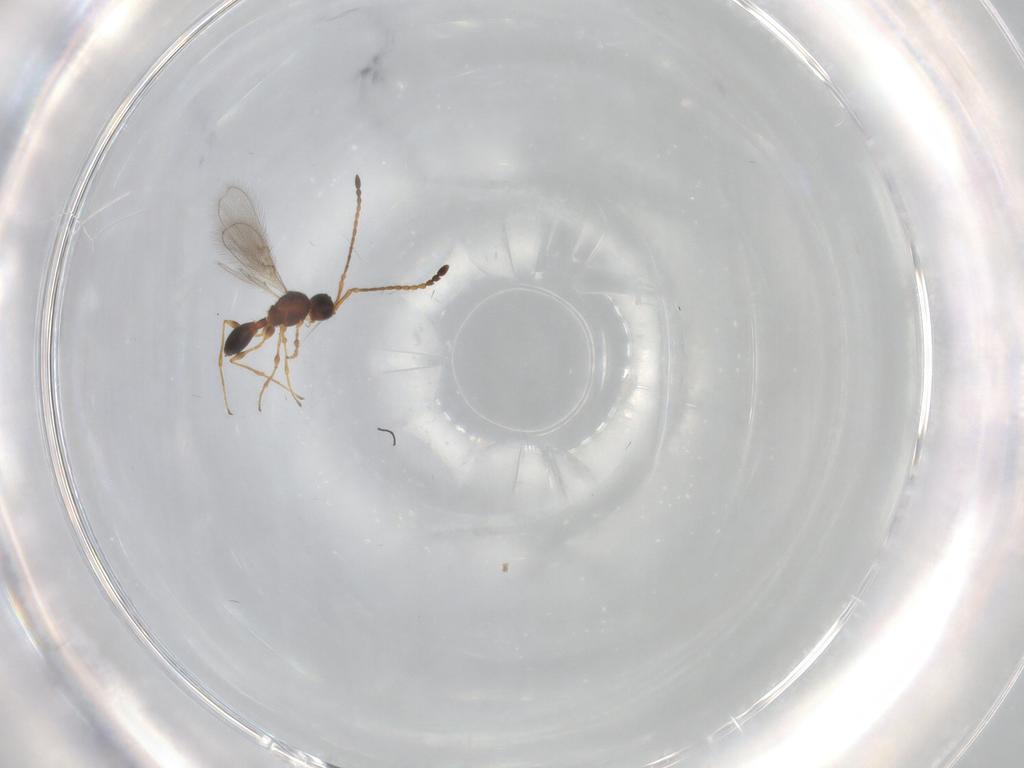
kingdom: Animalia
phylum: Arthropoda
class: Insecta
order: Hymenoptera
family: Diapriidae
